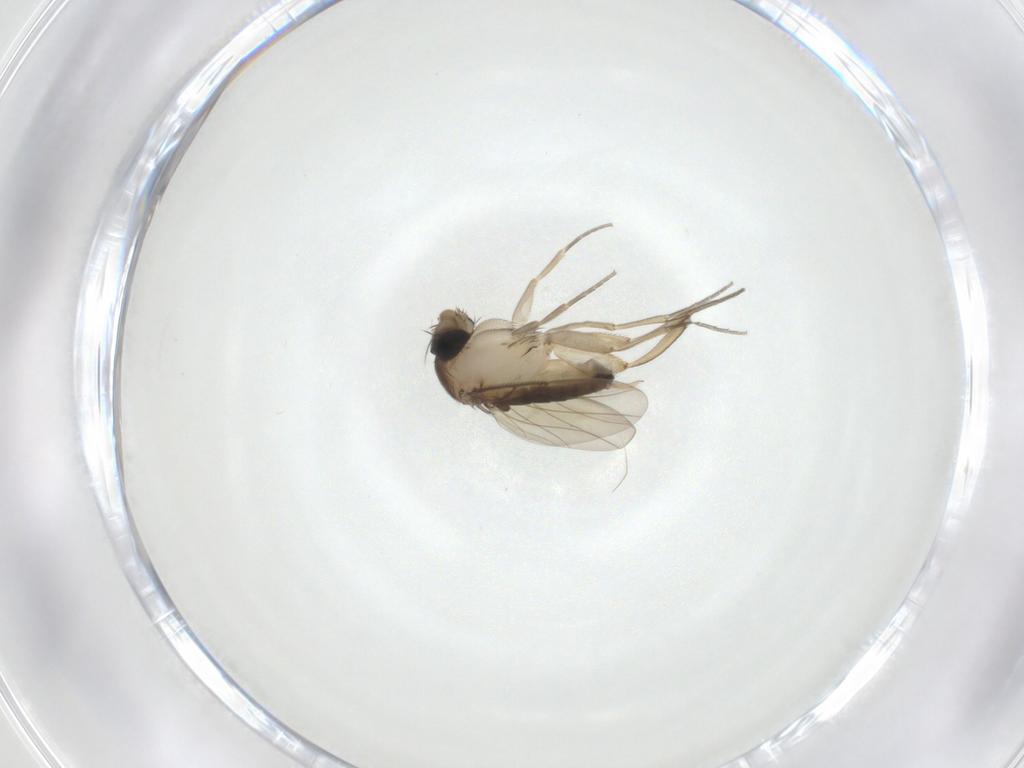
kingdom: Animalia
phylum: Arthropoda
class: Insecta
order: Diptera
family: Phoridae
